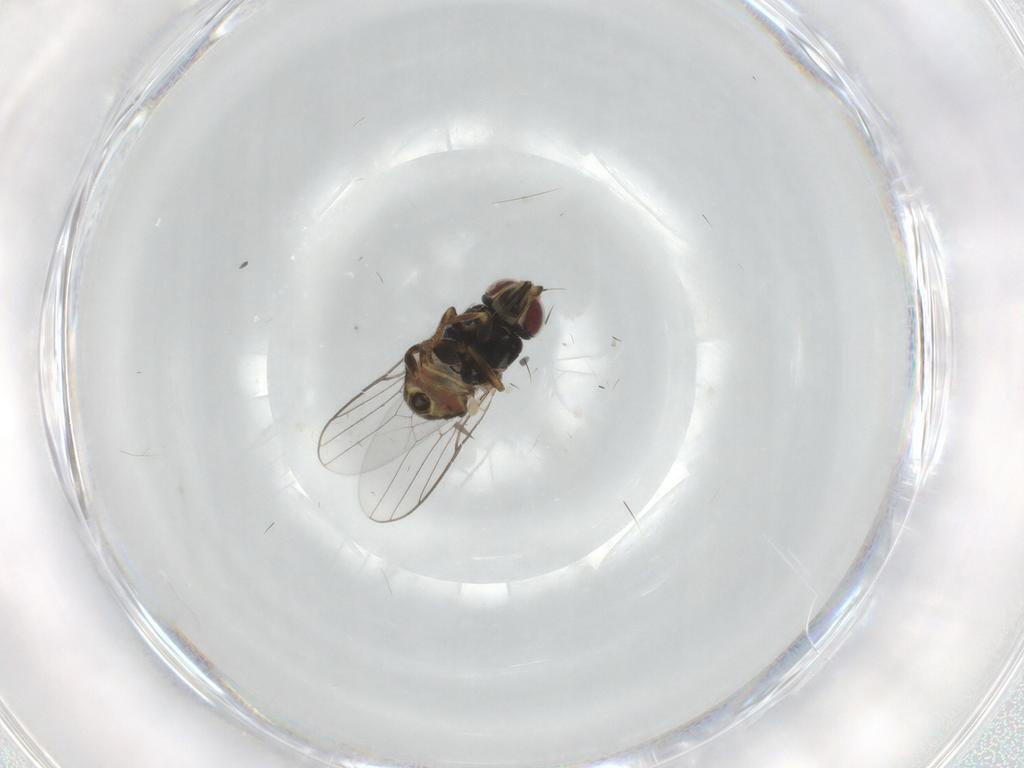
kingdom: Animalia
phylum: Arthropoda
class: Insecta
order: Diptera
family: Chloropidae
